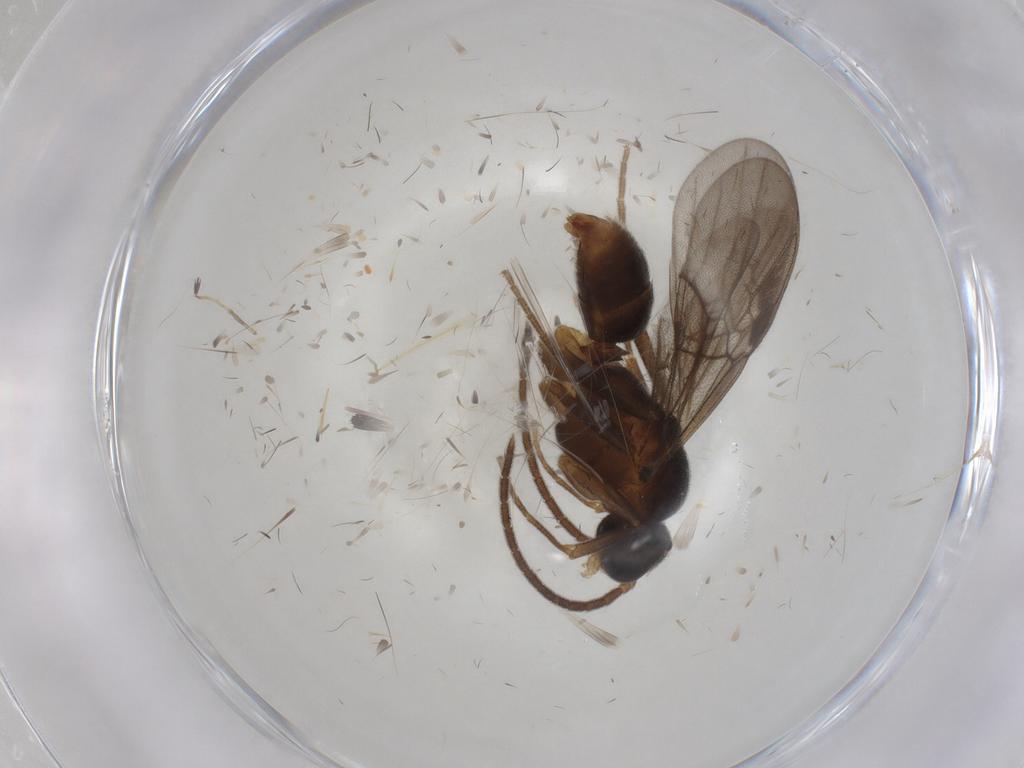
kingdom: Animalia
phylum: Arthropoda
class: Insecta
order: Hymenoptera
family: Formicidae
